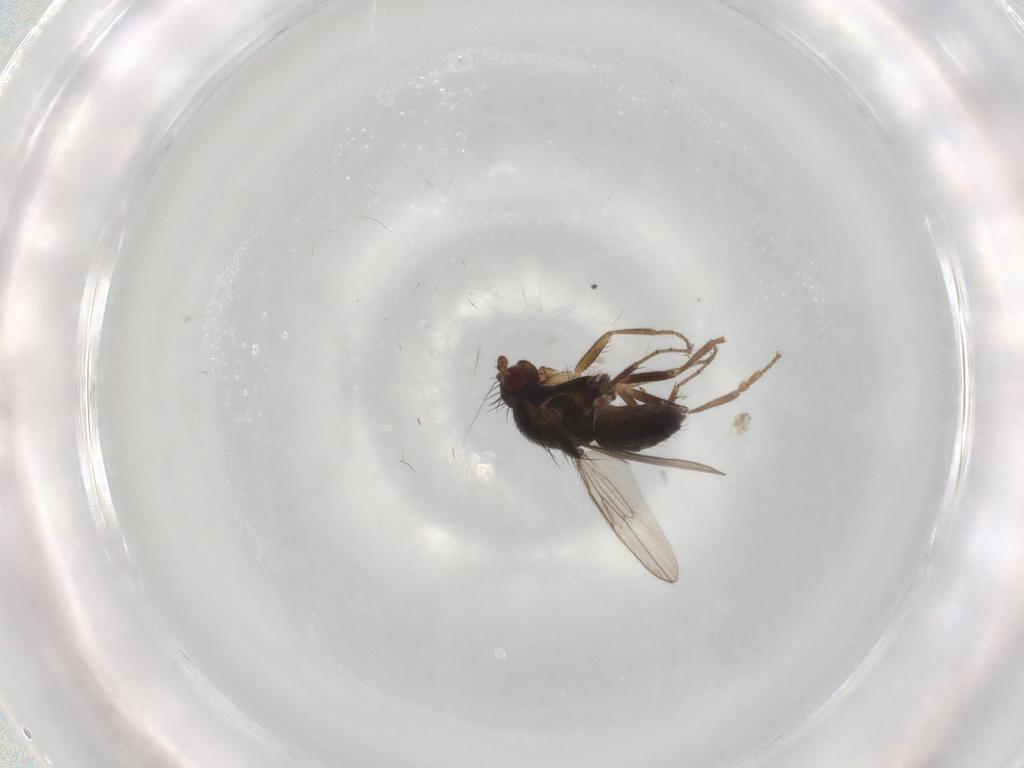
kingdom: Animalia
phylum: Arthropoda
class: Insecta
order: Diptera
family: Sphaeroceridae
